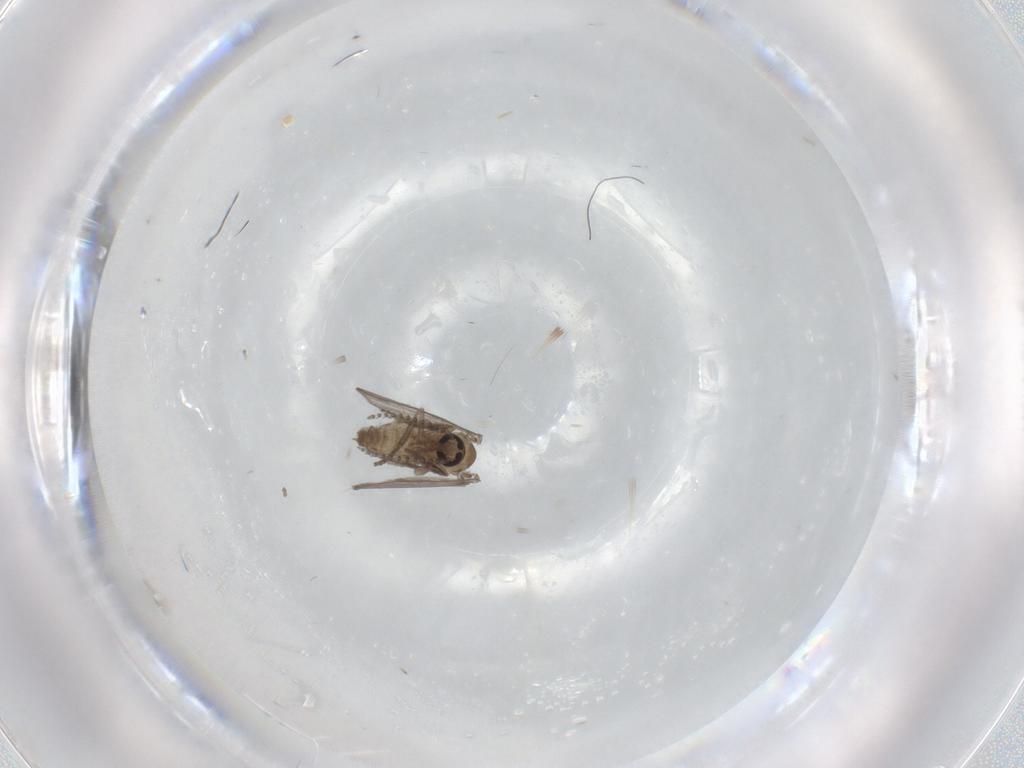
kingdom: Animalia
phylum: Arthropoda
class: Insecta
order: Diptera
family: Psychodidae
